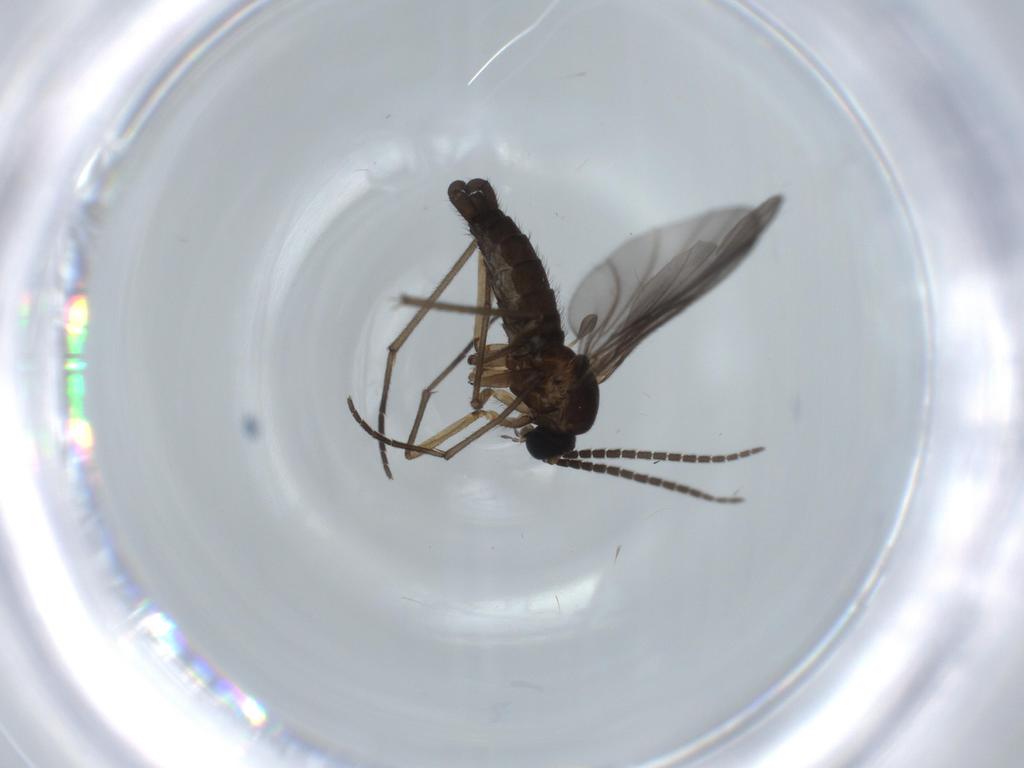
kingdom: Animalia
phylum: Arthropoda
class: Insecta
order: Diptera
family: Sciaridae
